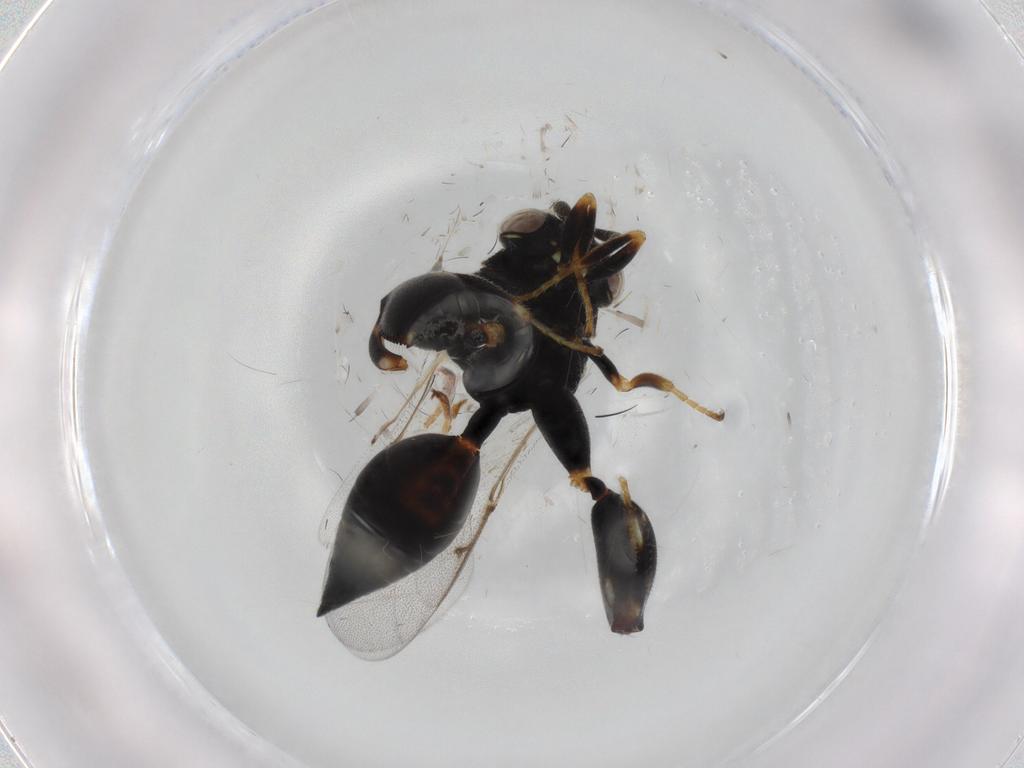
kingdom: Animalia
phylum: Arthropoda
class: Insecta
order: Hymenoptera
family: Chalcididae
